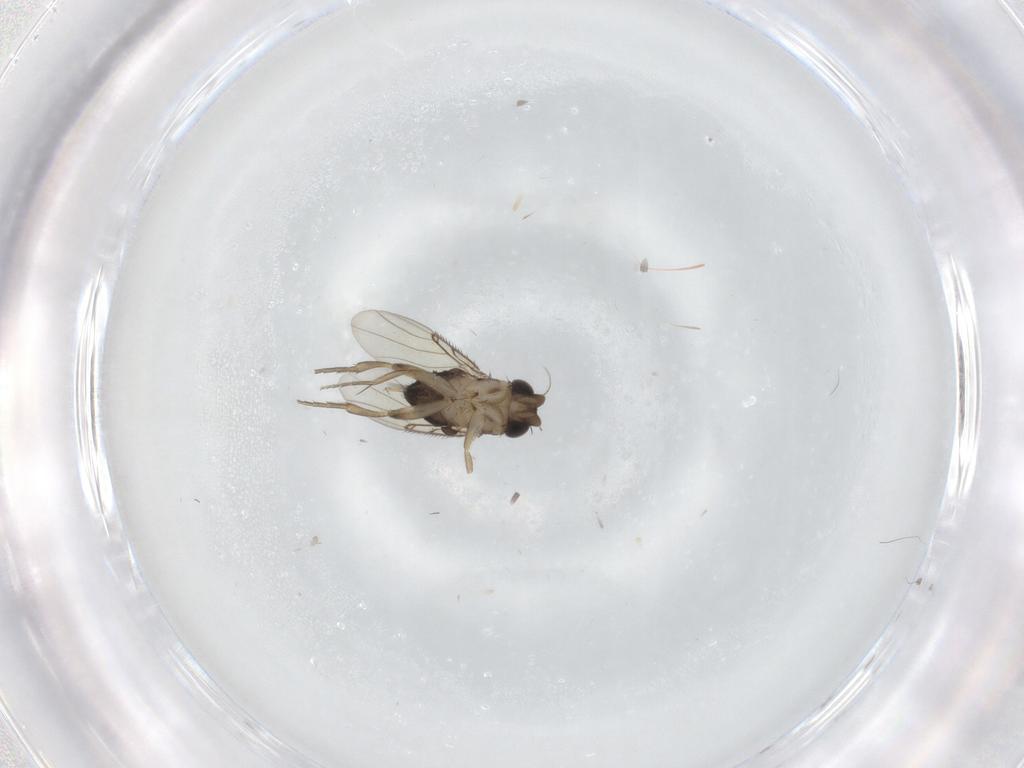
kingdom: Animalia
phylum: Arthropoda
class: Insecta
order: Diptera
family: Phoridae
